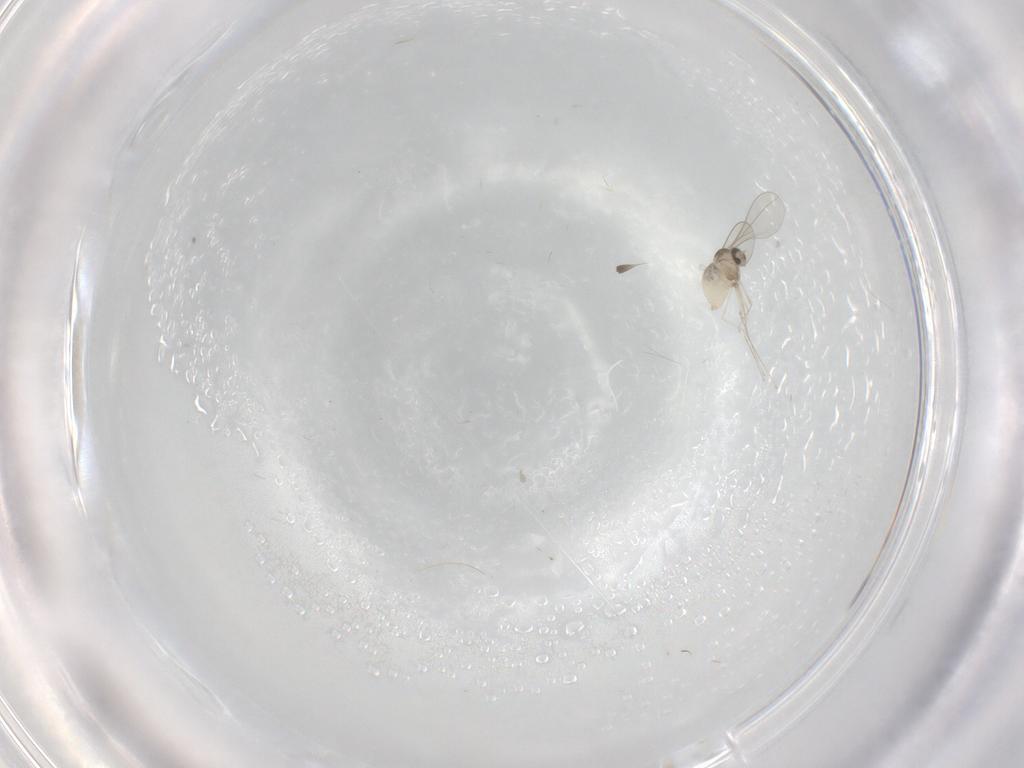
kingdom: Animalia
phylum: Arthropoda
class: Insecta
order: Diptera
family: Cecidomyiidae
